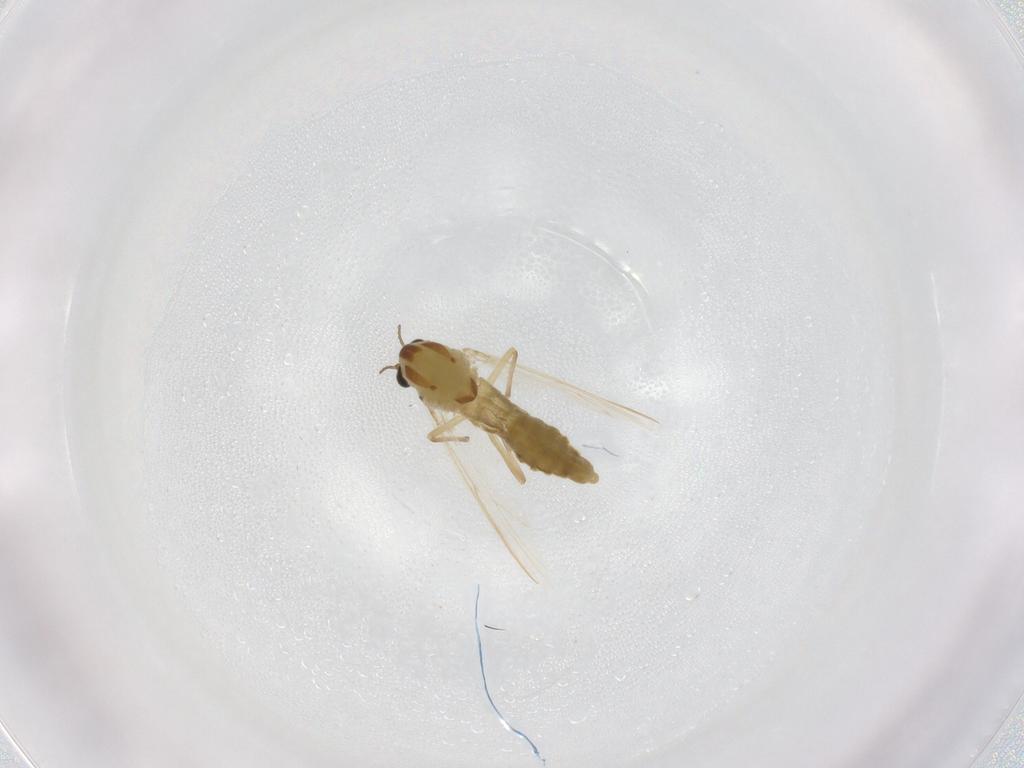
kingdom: Animalia
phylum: Arthropoda
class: Insecta
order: Diptera
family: Chironomidae
